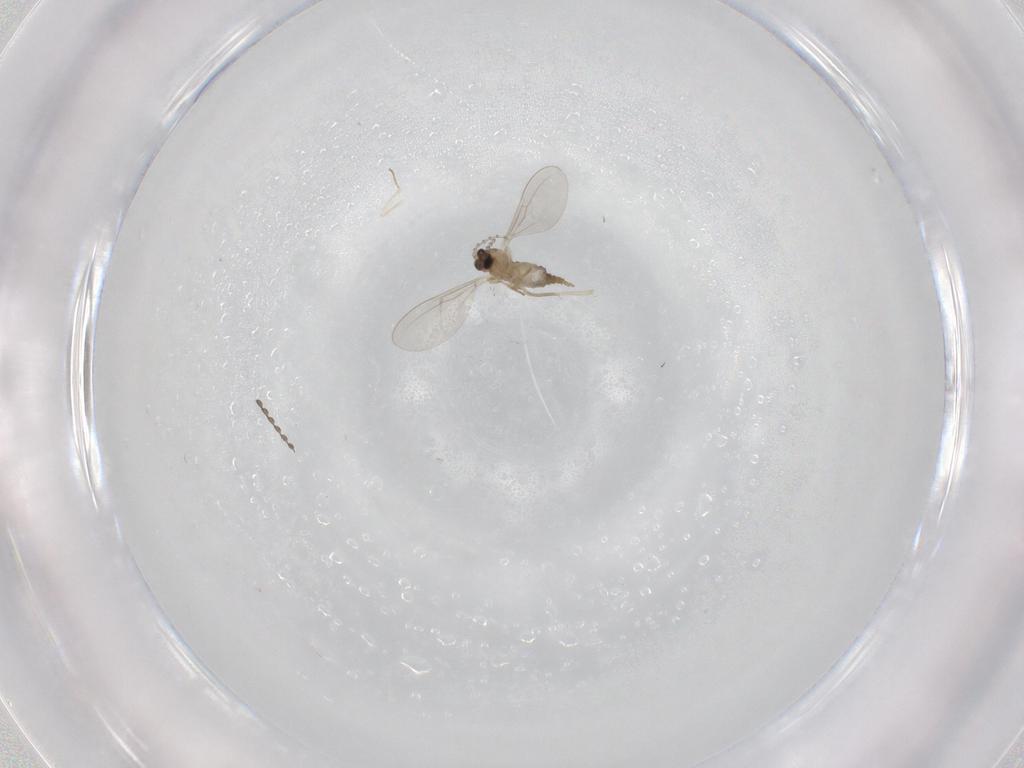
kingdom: Animalia
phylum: Arthropoda
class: Insecta
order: Diptera
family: Cecidomyiidae
